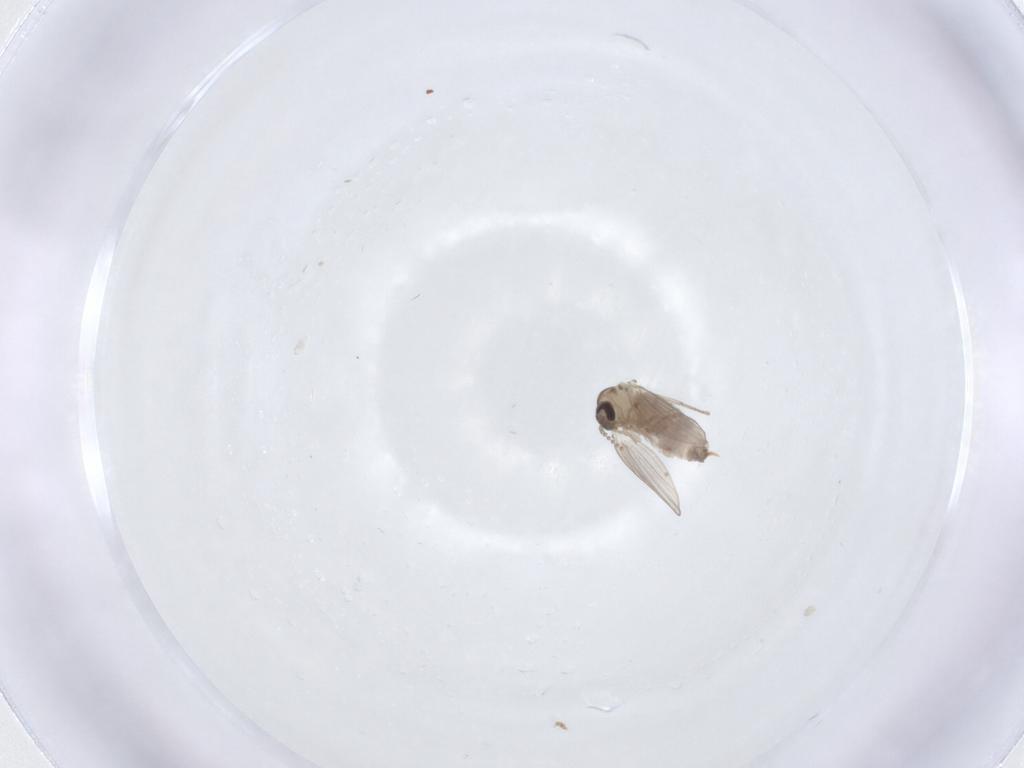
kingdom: Animalia
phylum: Arthropoda
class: Insecta
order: Diptera
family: Psychodidae
